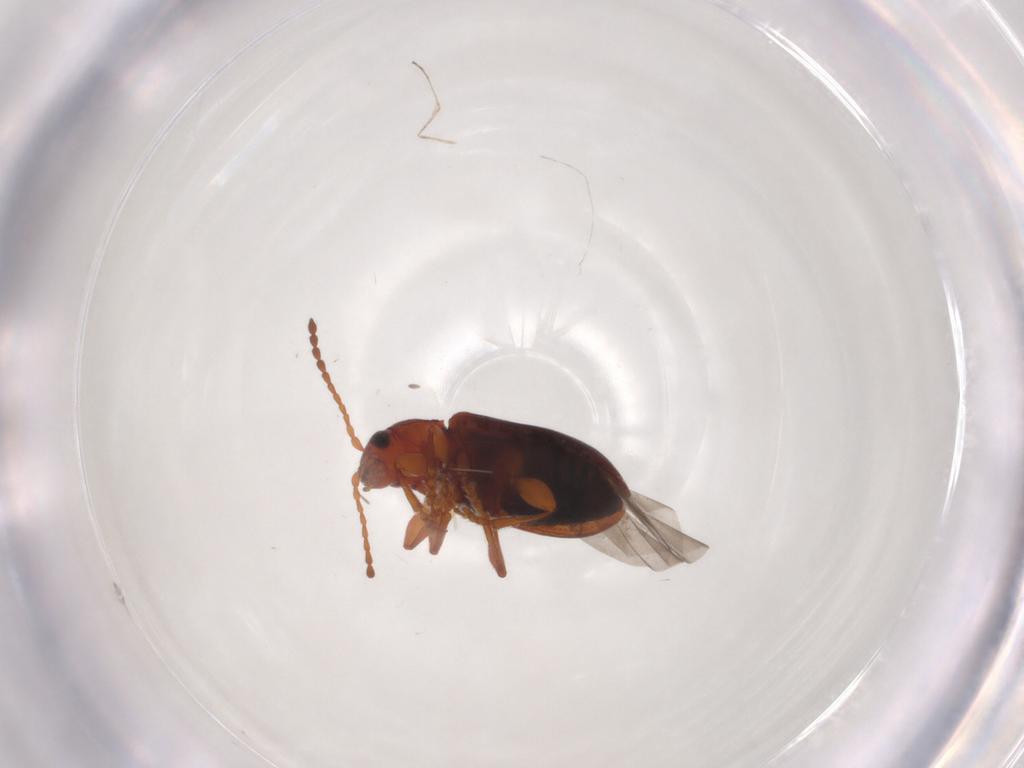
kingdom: Animalia
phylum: Arthropoda
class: Insecta
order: Coleoptera
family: Chrysomelidae
